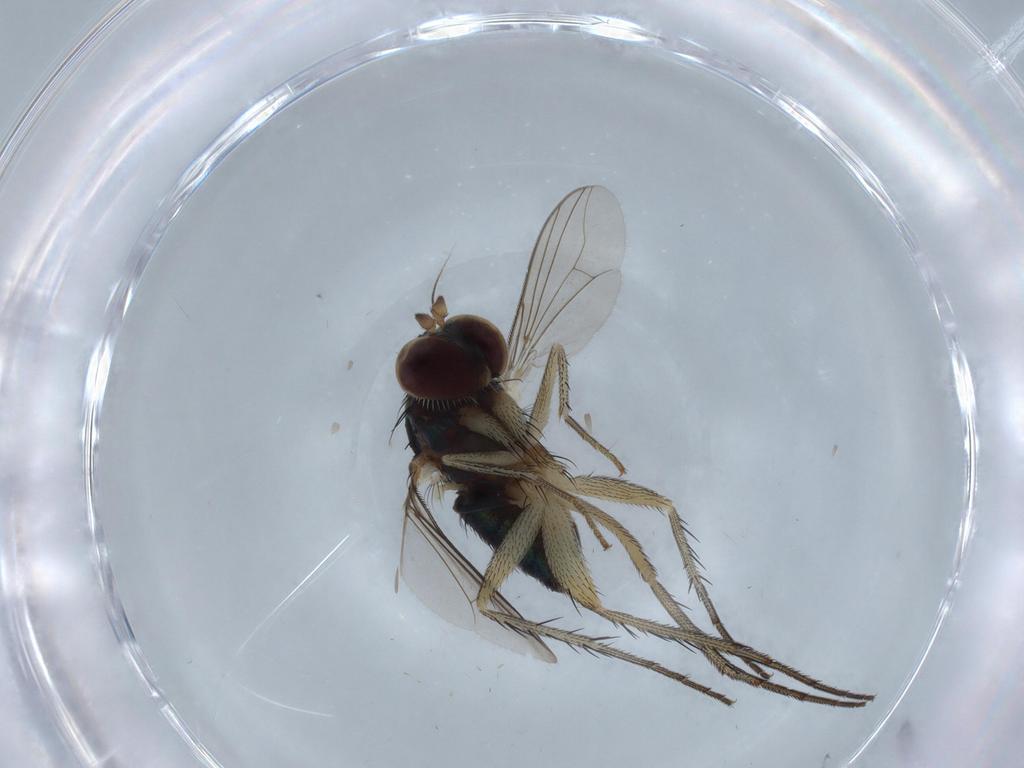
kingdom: Animalia
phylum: Arthropoda
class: Insecta
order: Diptera
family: Dolichopodidae
